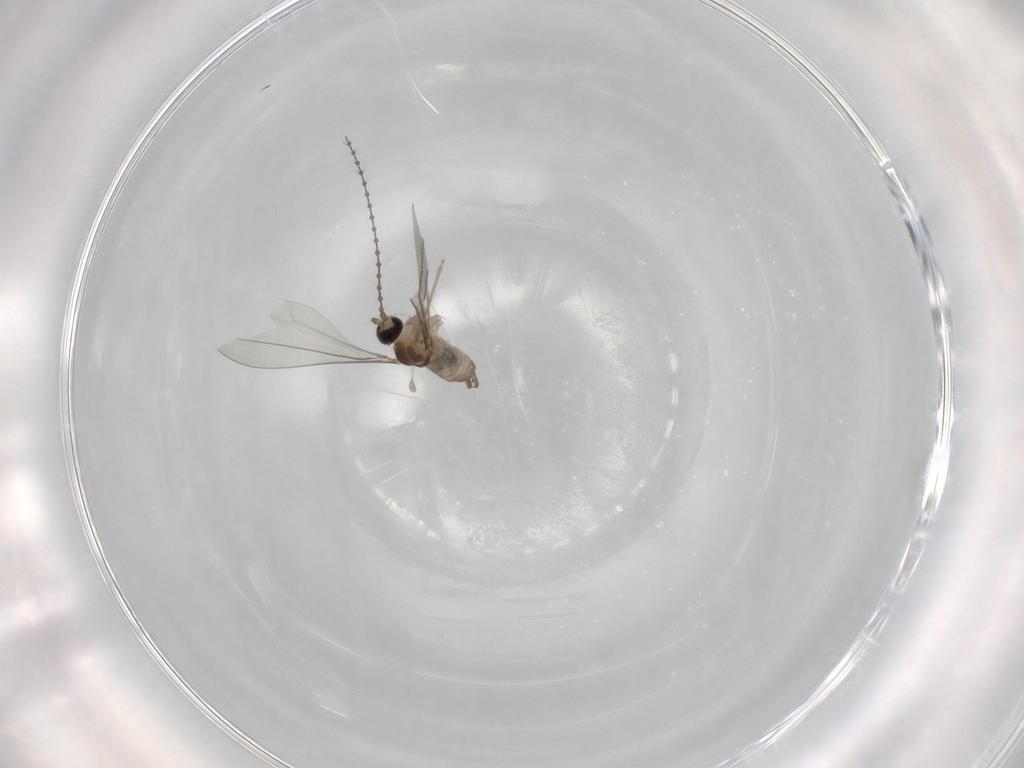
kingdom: Animalia
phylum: Arthropoda
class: Insecta
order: Diptera
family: Cecidomyiidae
